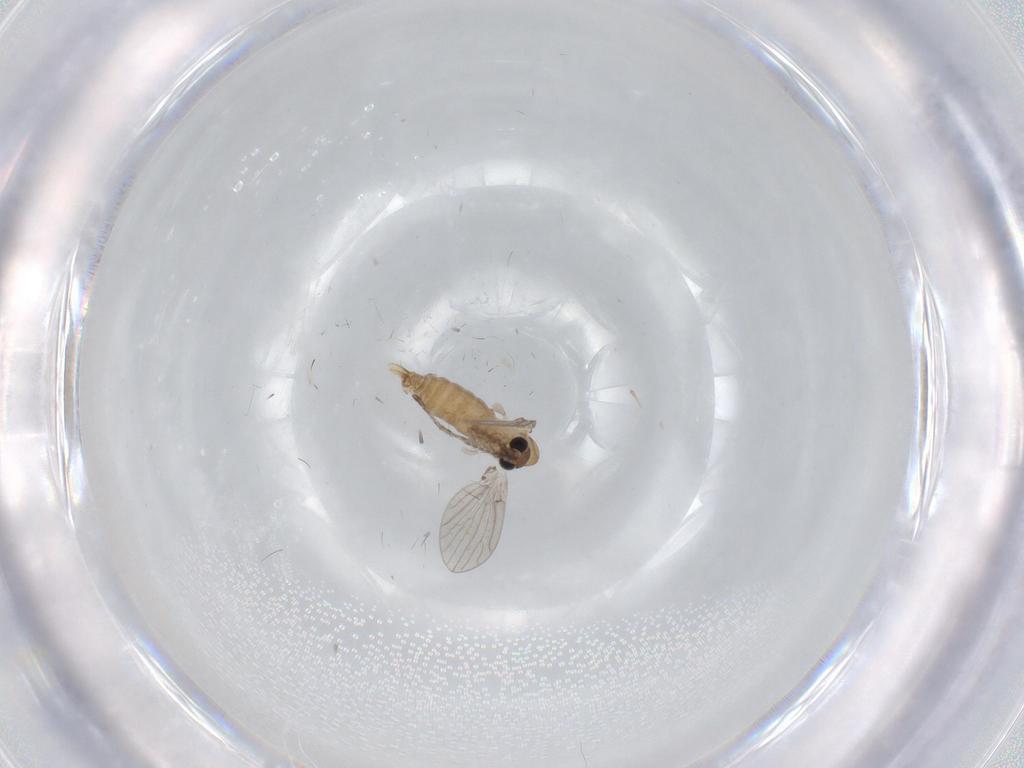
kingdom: Animalia
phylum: Arthropoda
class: Insecta
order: Diptera
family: Psychodidae
